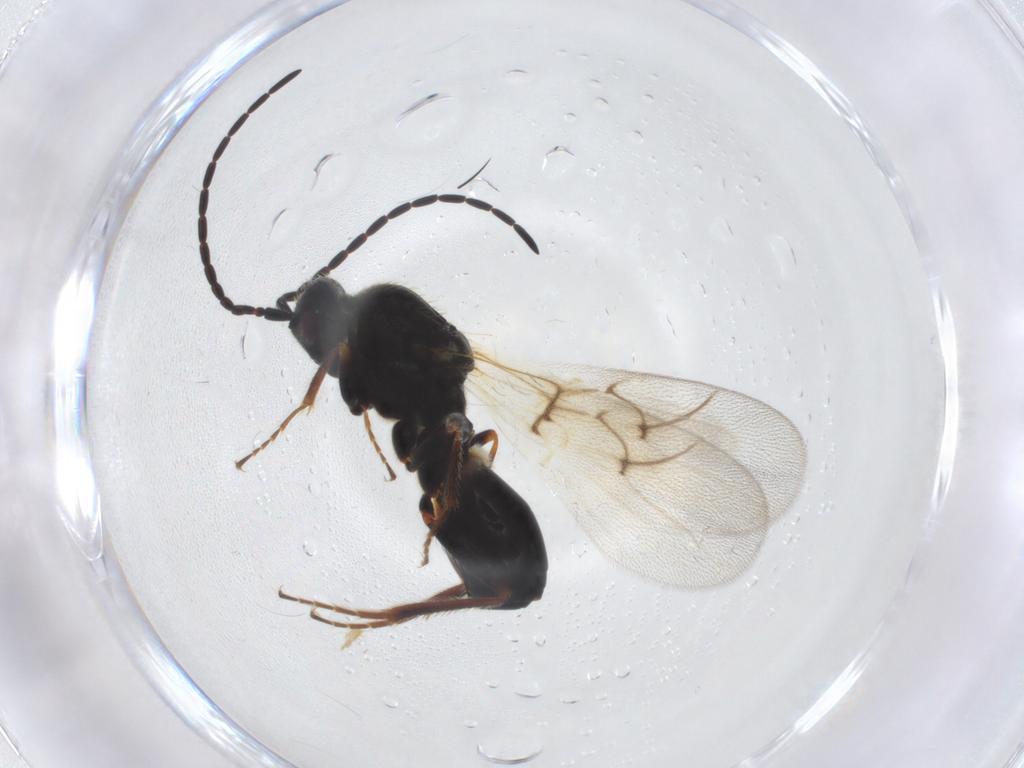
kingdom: Animalia
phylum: Arthropoda
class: Insecta
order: Hymenoptera
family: Figitidae
